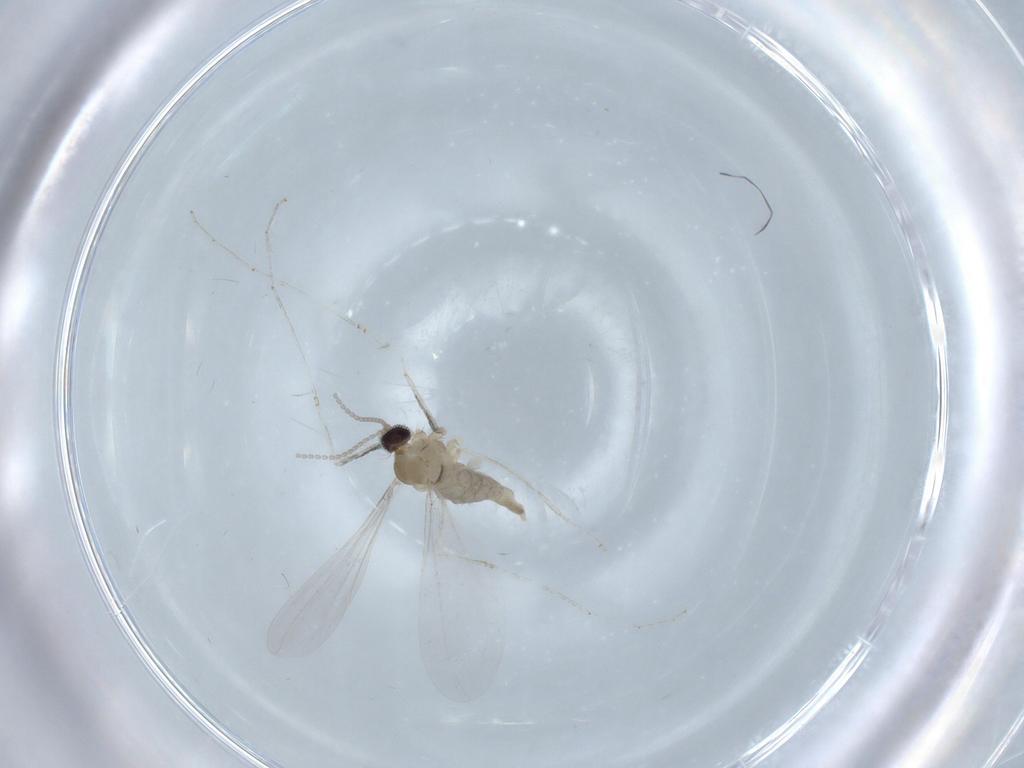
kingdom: Animalia
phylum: Arthropoda
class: Insecta
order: Diptera
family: Cecidomyiidae
